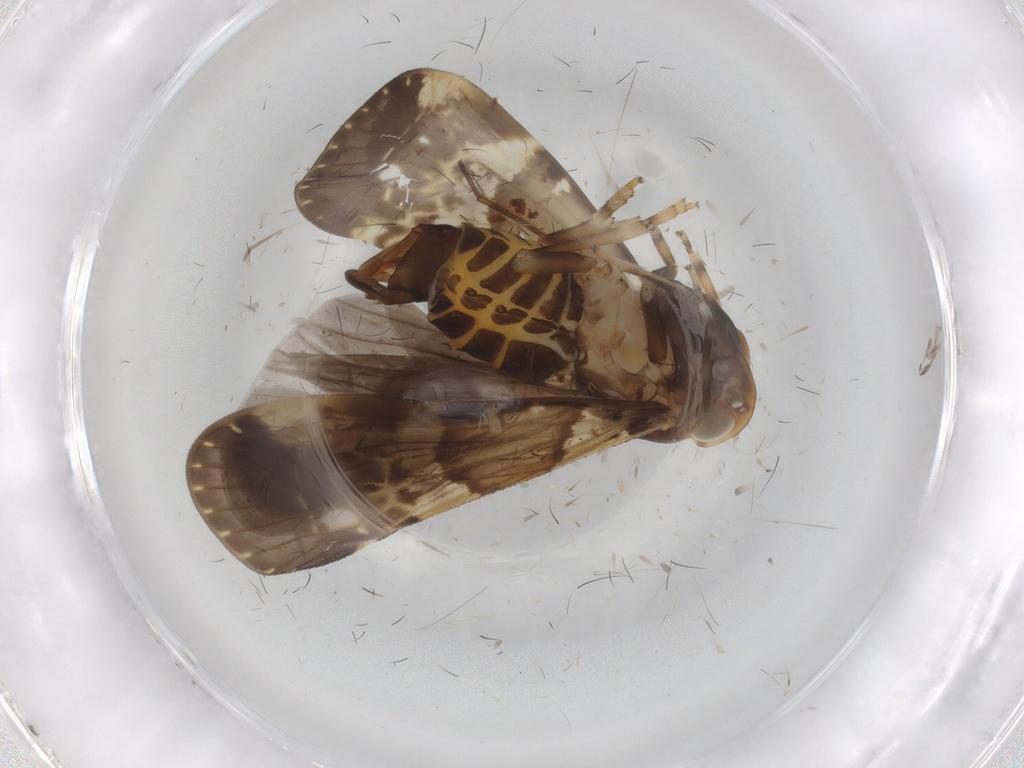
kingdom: Animalia
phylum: Arthropoda
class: Insecta
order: Hemiptera
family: Cixiidae
